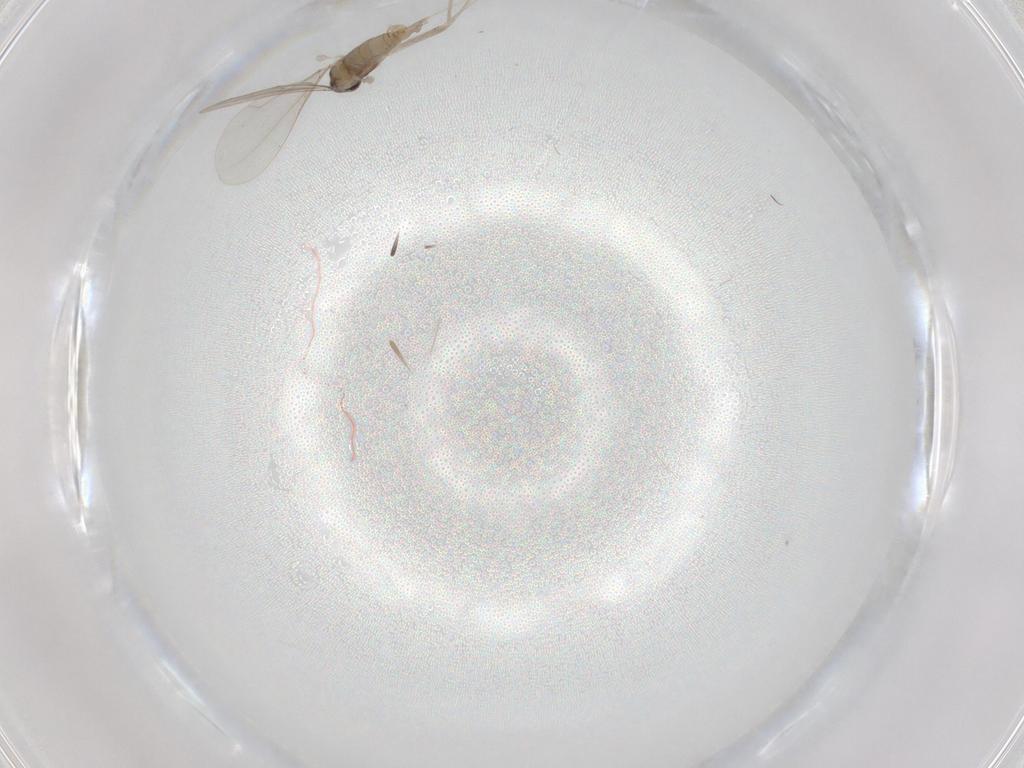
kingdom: Animalia
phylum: Arthropoda
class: Insecta
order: Diptera
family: Cecidomyiidae
